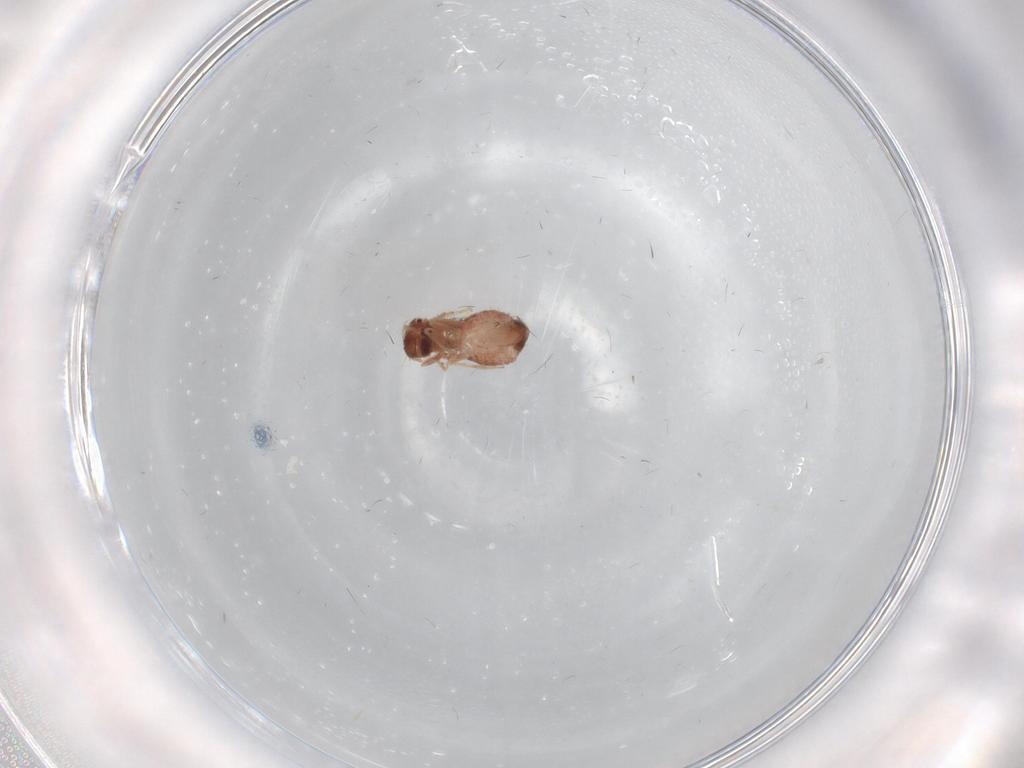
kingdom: Animalia
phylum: Arthropoda
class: Insecta
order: Psocodea
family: Archipsocidae
